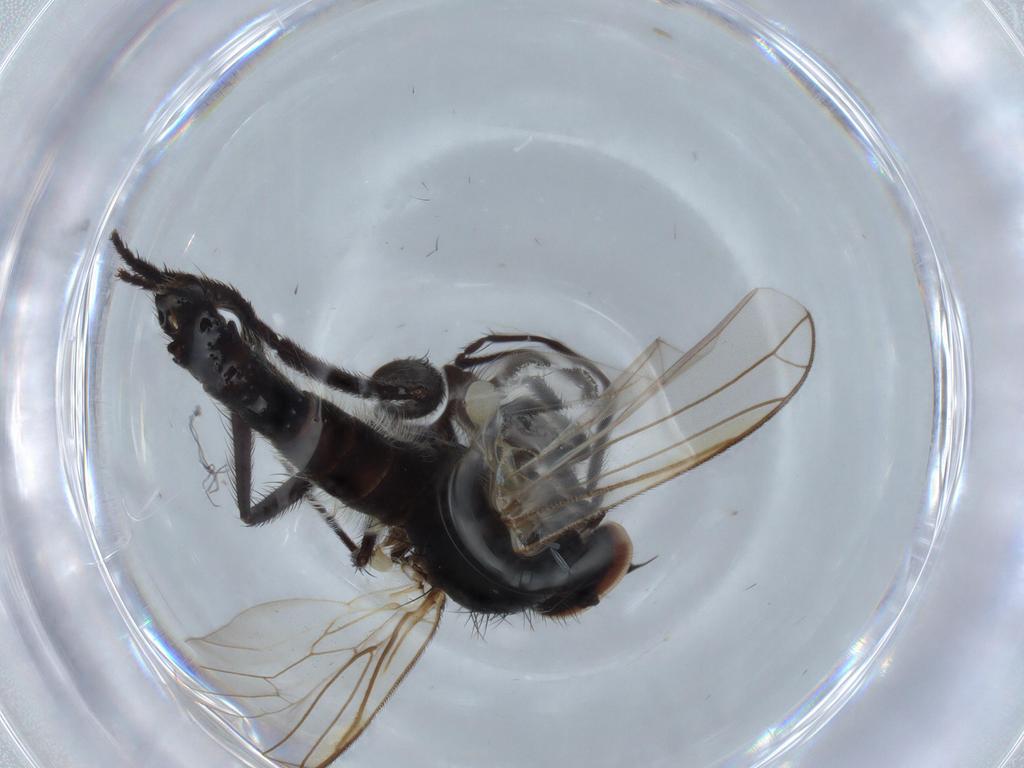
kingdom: Animalia
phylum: Arthropoda
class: Insecta
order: Diptera
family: Empididae
